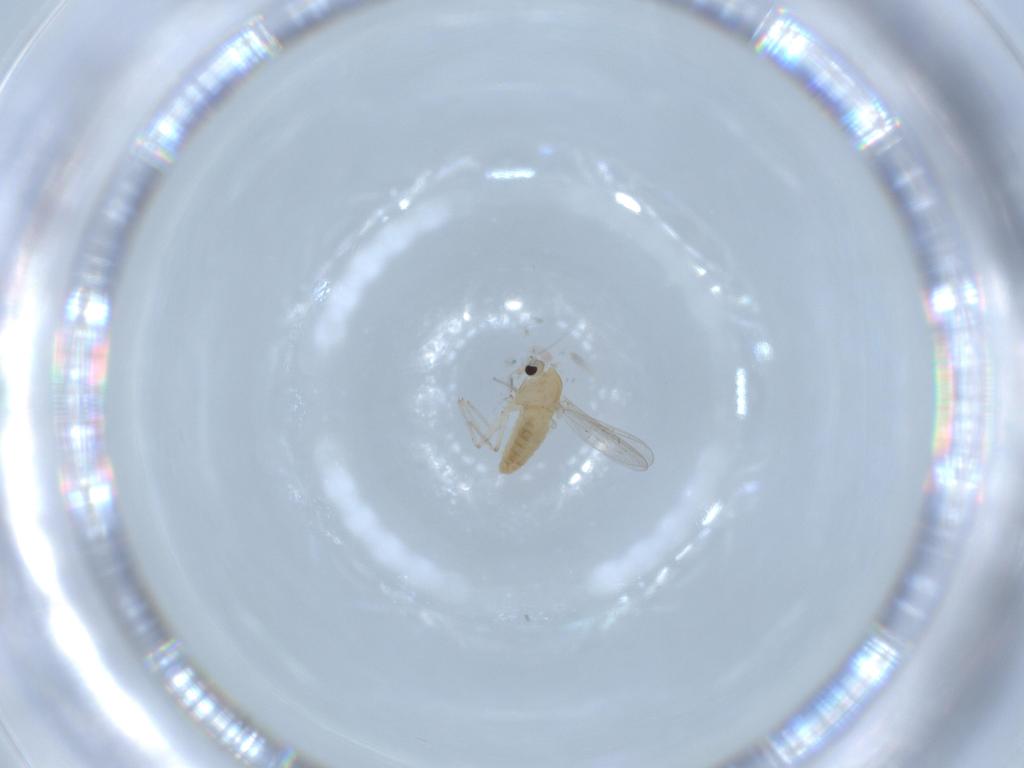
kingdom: Animalia
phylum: Arthropoda
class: Insecta
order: Diptera
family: Chironomidae
